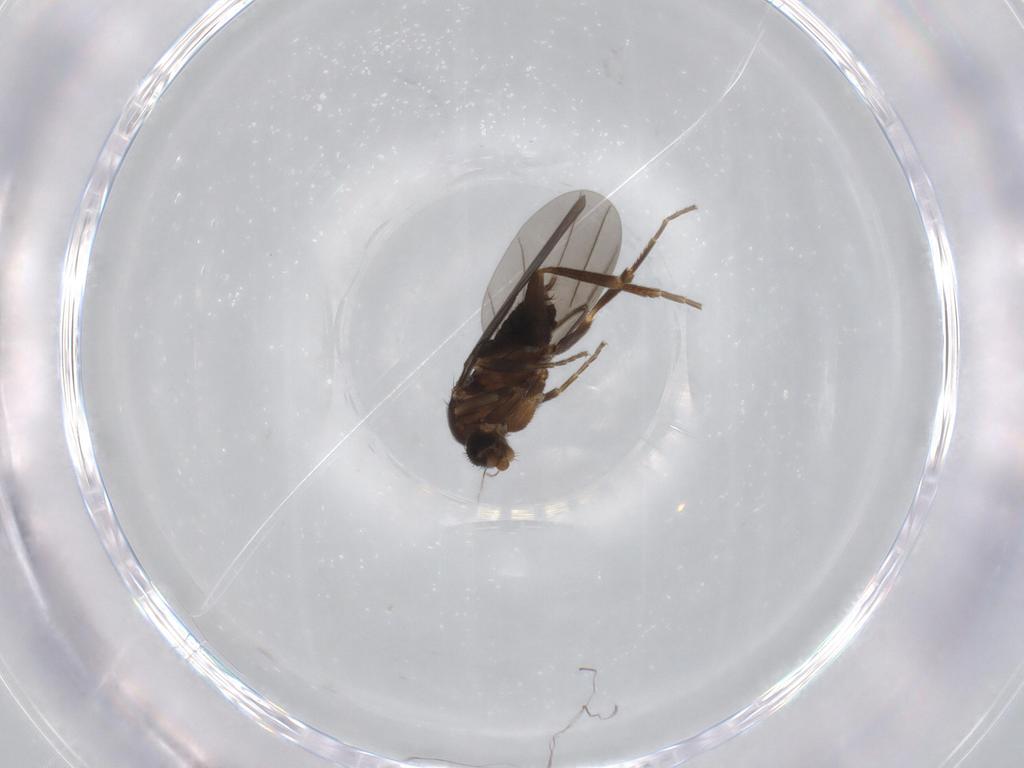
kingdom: Animalia
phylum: Arthropoda
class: Insecta
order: Diptera
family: Phoridae
